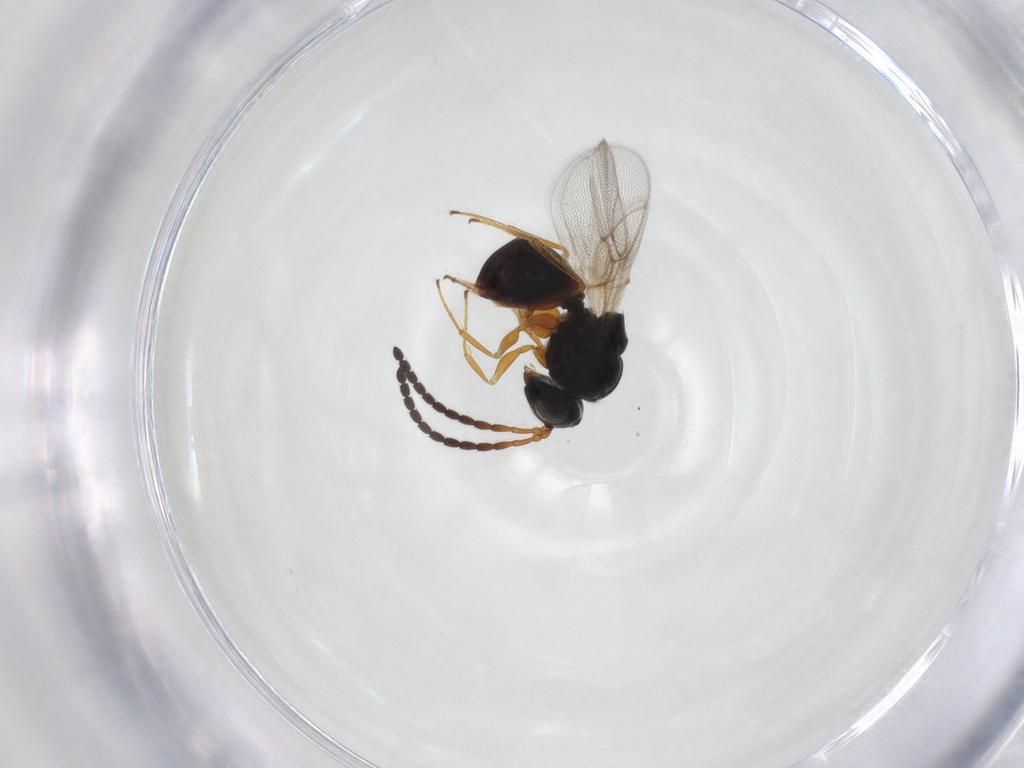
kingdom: Animalia
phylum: Arthropoda
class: Insecta
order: Hymenoptera
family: Figitidae
